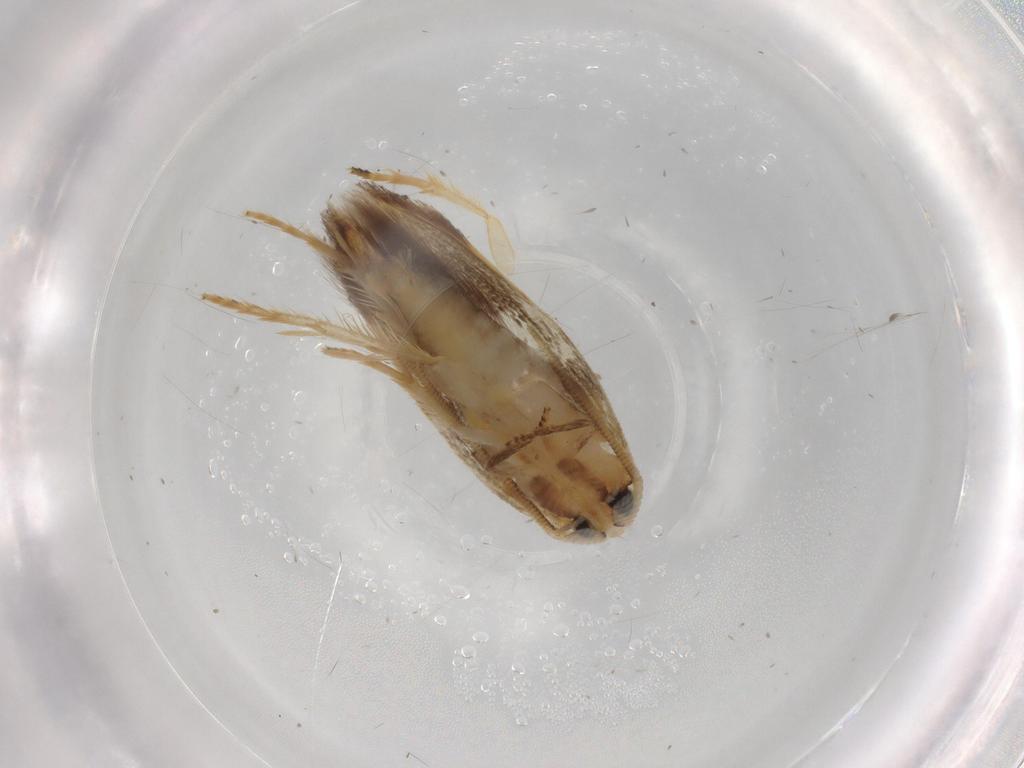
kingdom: Animalia
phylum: Arthropoda
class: Insecta
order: Lepidoptera
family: Opostegidae
